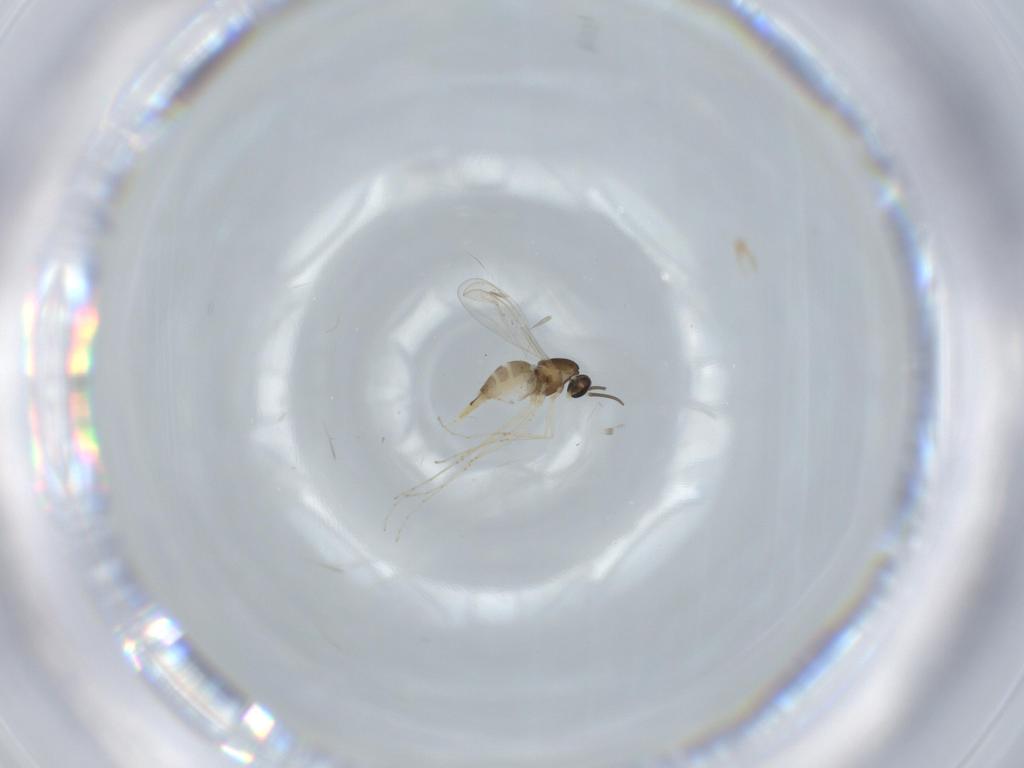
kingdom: Animalia
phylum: Arthropoda
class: Insecta
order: Diptera
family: Cecidomyiidae
